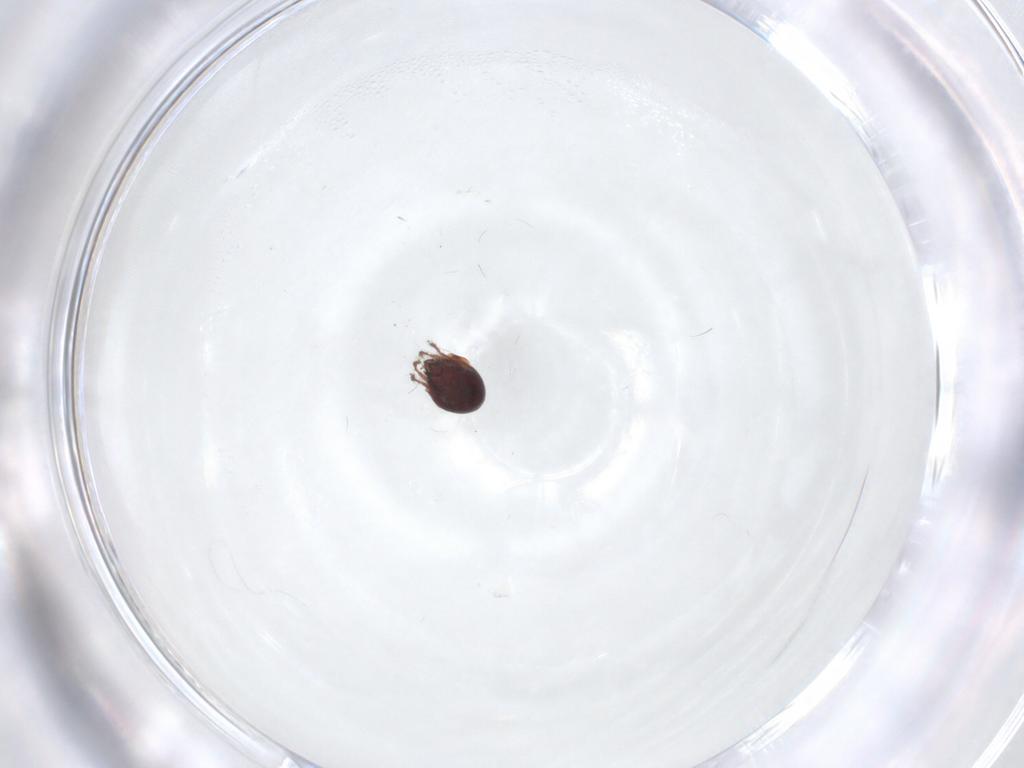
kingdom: Animalia
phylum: Arthropoda
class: Arachnida
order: Sarcoptiformes
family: Ceratozetidae
